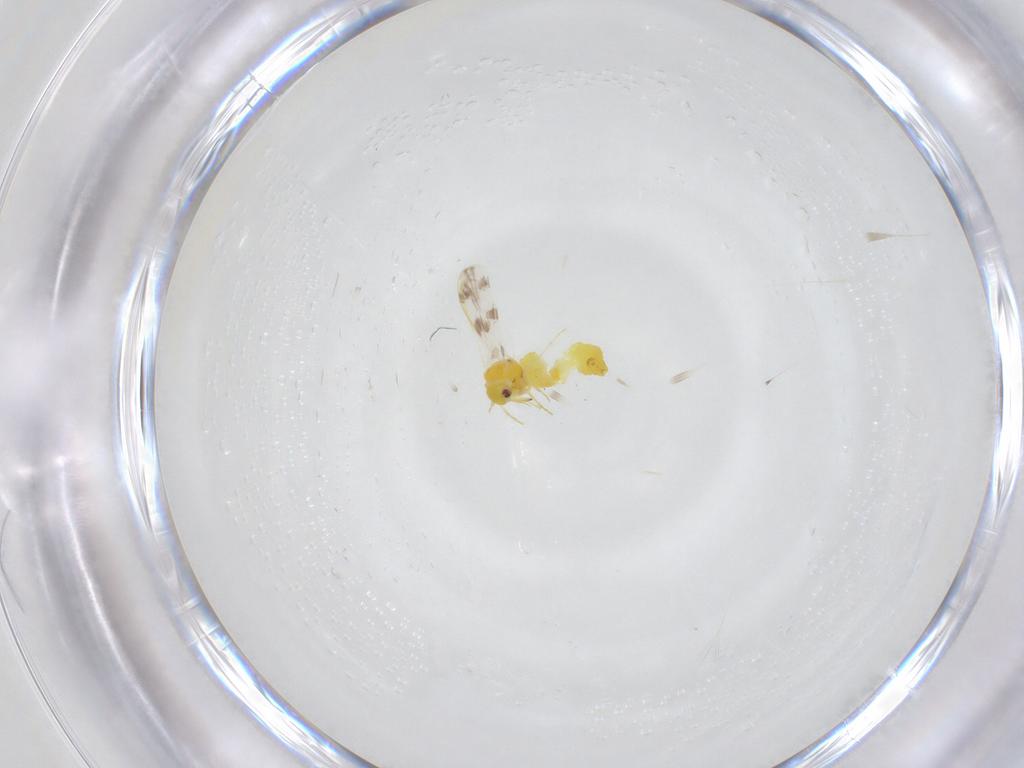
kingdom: Animalia
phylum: Arthropoda
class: Insecta
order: Hemiptera
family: Aleyrodidae
